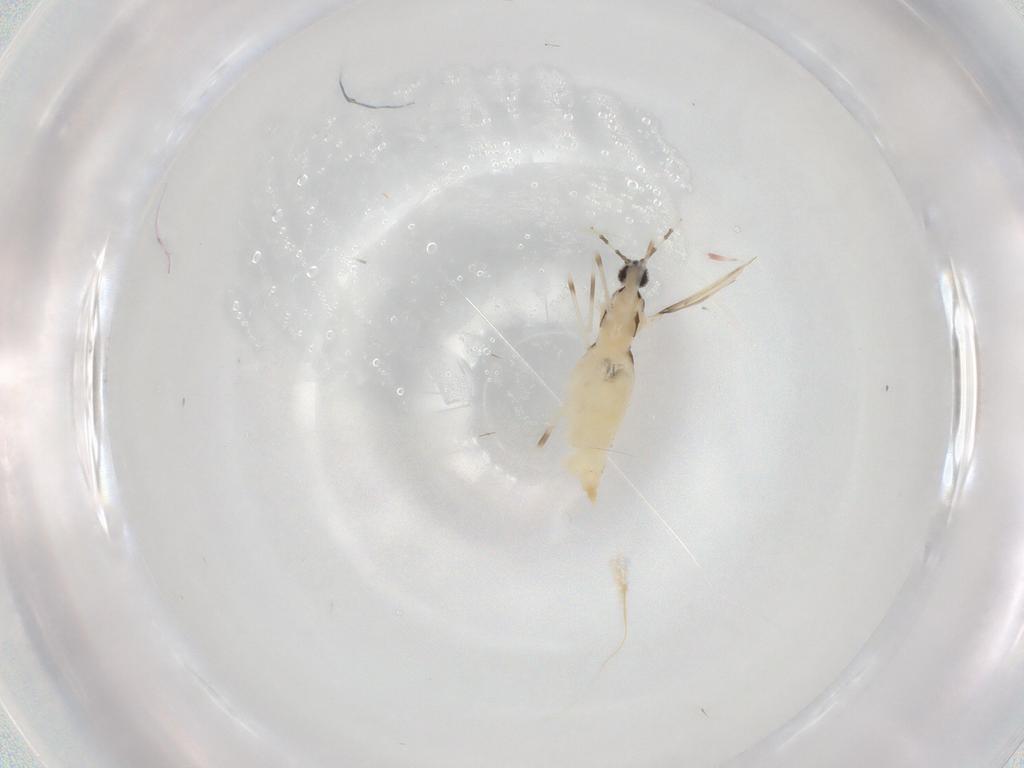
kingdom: Animalia
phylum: Arthropoda
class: Insecta
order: Diptera
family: Cecidomyiidae
